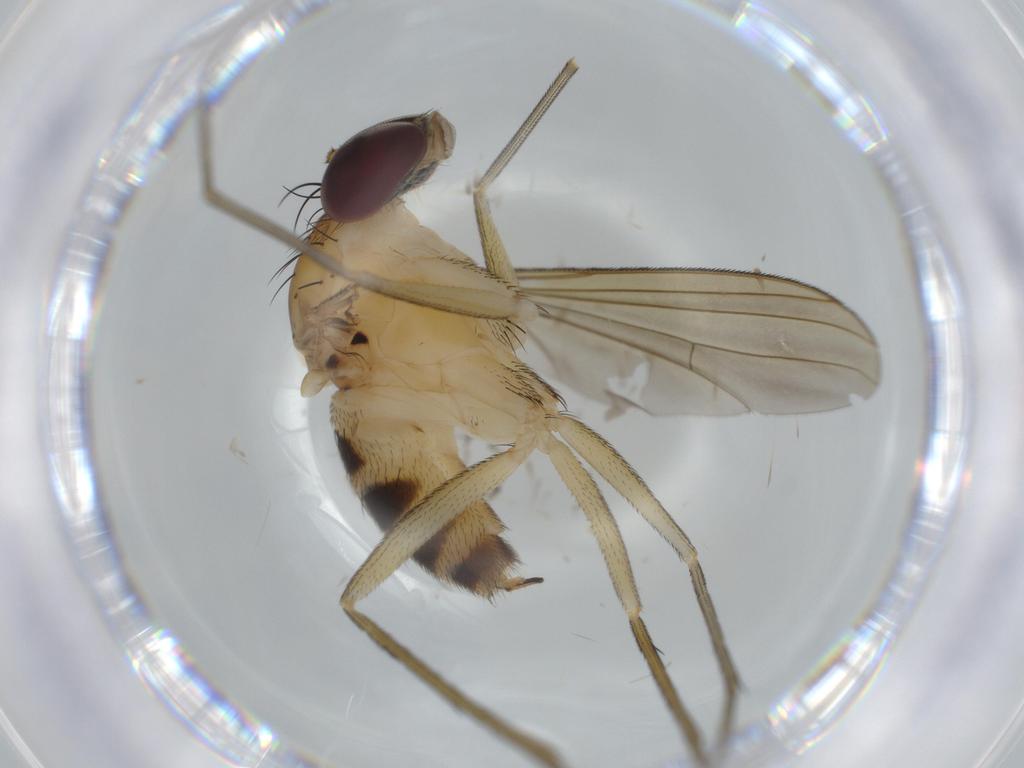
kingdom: Animalia
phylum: Arthropoda
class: Insecta
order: Diptera
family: Dolichopodidae
